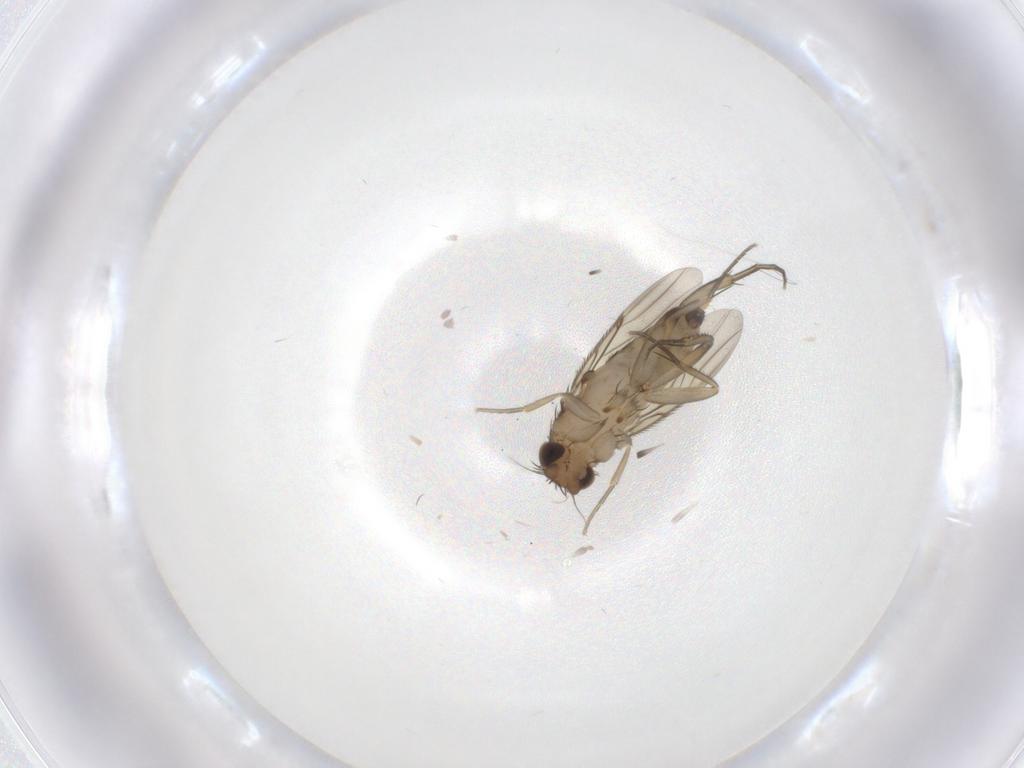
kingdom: Animalia
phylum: Arthropoda
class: Insecta
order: Diptera
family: Phoridae
